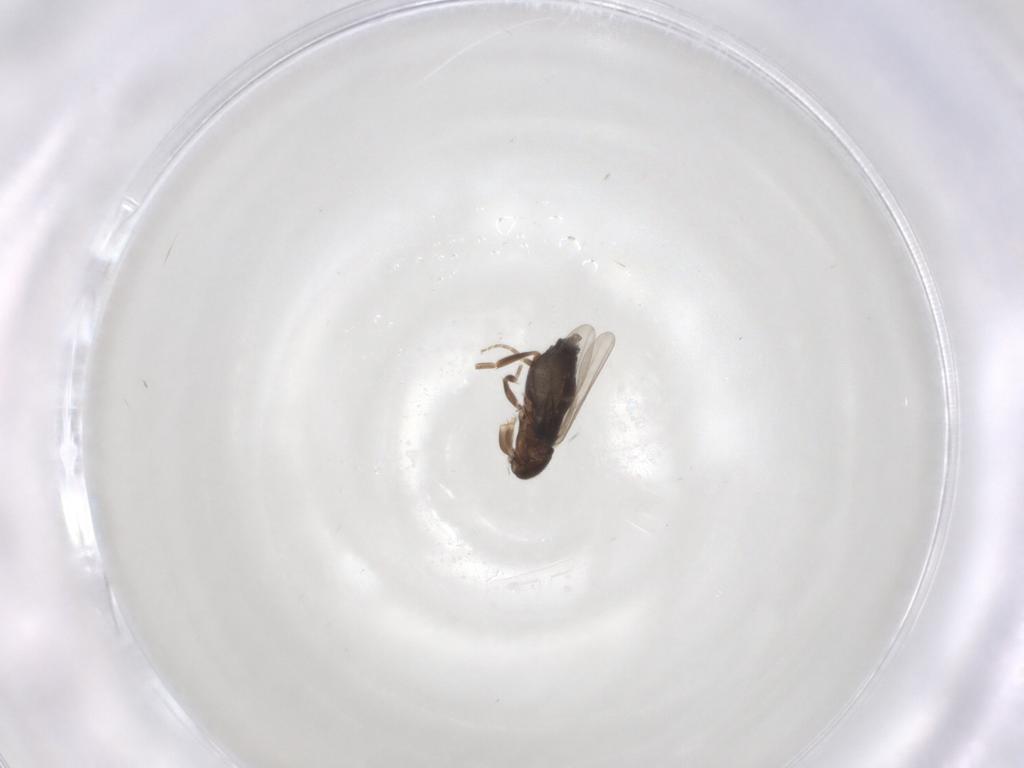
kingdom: Animalia
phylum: Arthropoda
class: Insecta
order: Diptera
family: Phoridae
